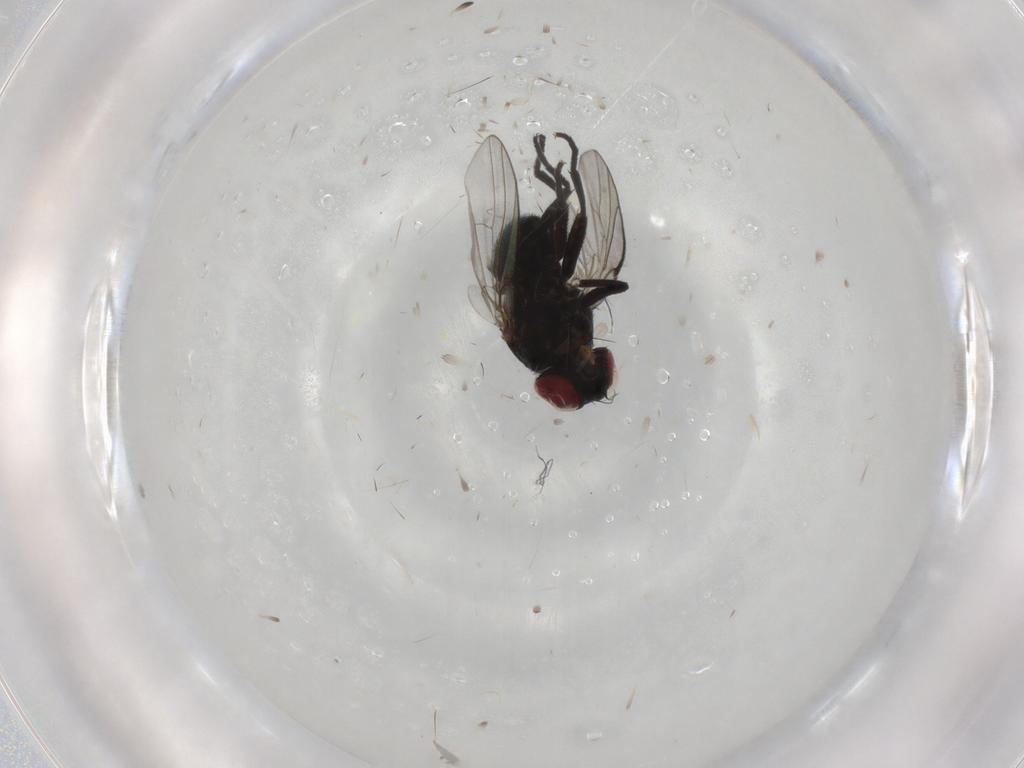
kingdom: Animalia
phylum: Arthropoda
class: Insecta
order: Diptera
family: Agromyzidae
